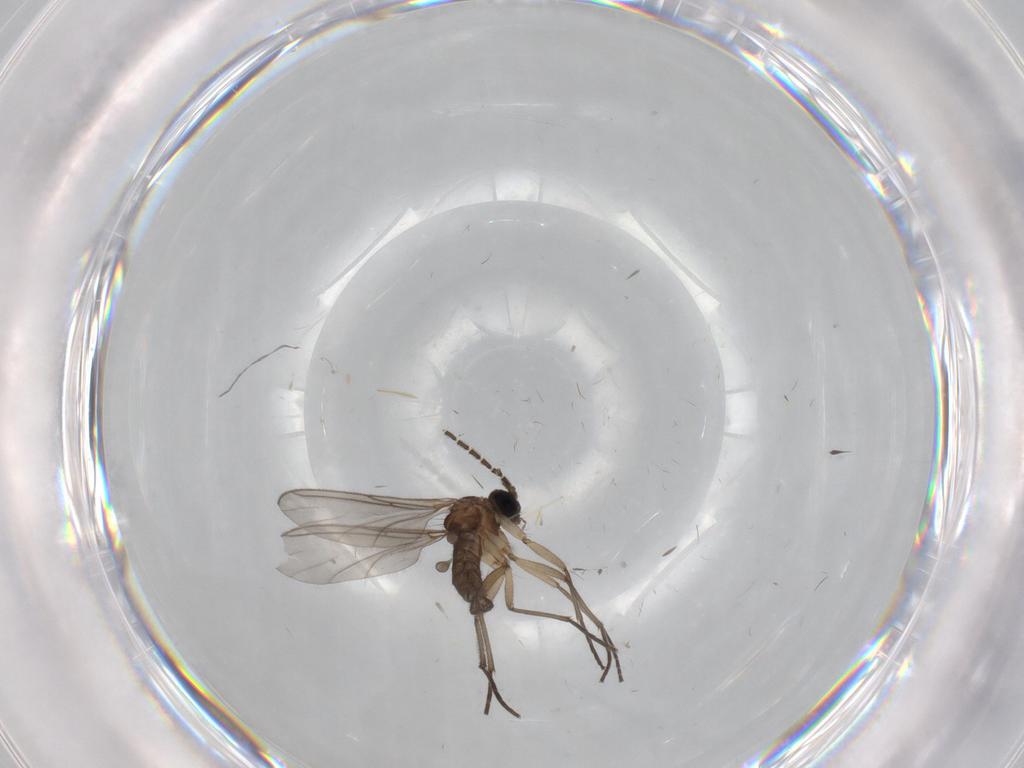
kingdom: Animalia
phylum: Arthropoda
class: Insecta
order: Diptera
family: Sciaridae
